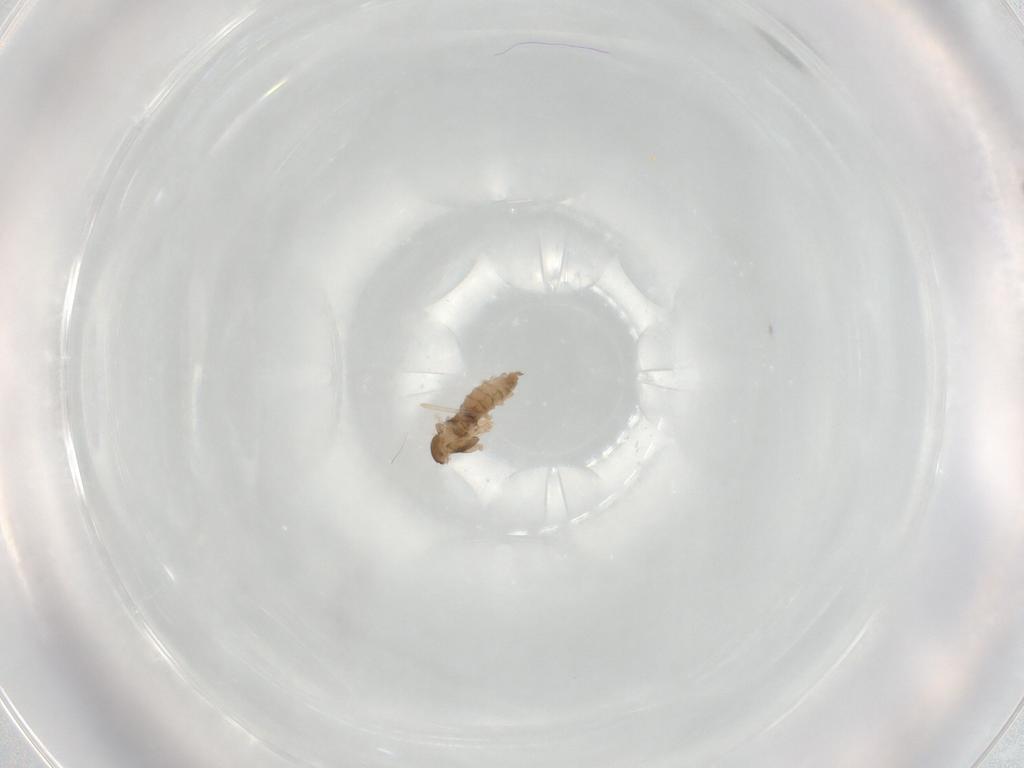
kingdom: Animalia
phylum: Arthropoda
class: Insecta
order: Diptera
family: Cecidomyiidae
